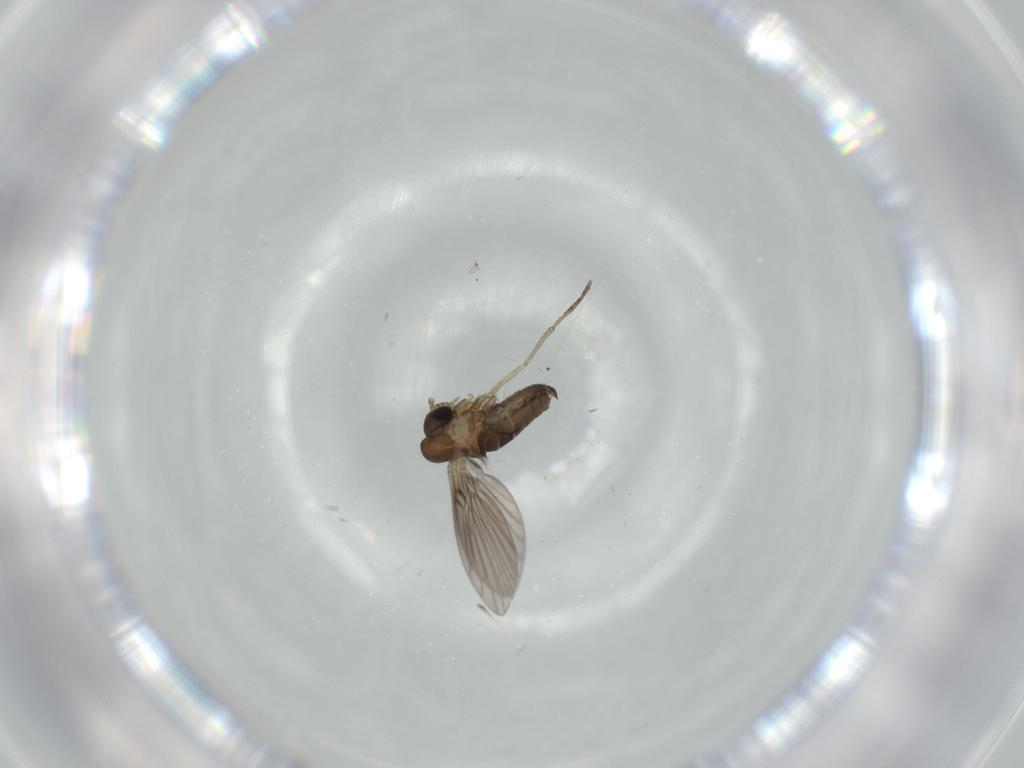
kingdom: Animalia
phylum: Arthropoda
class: Insecta
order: Diptera
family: Psychodidae
